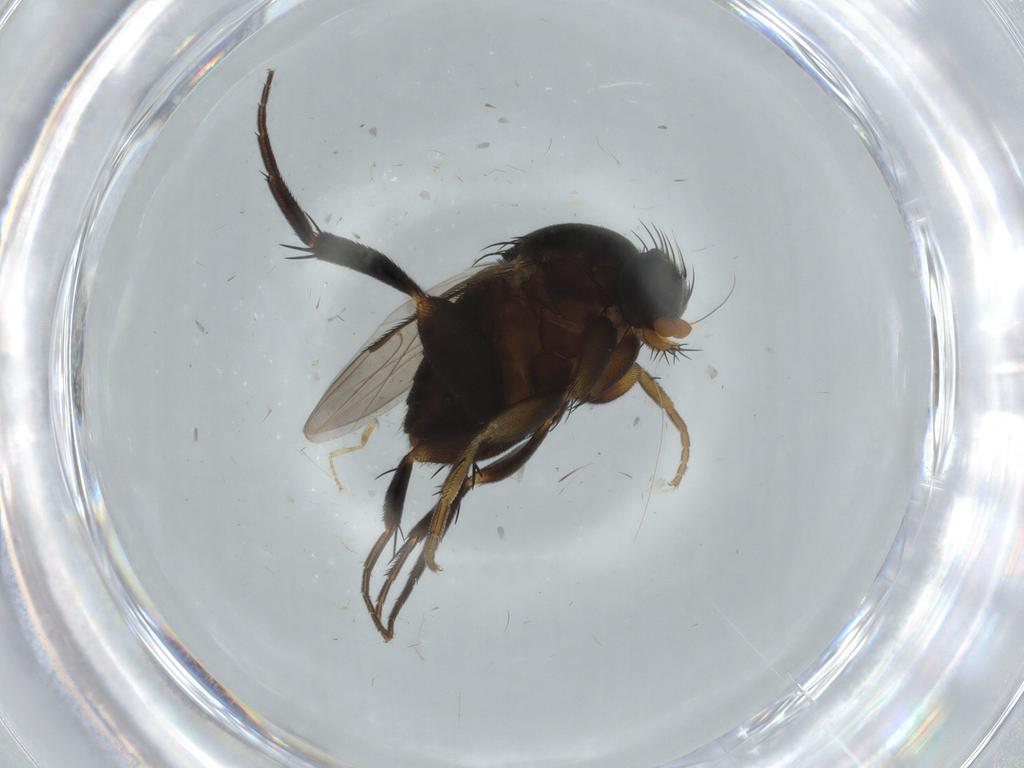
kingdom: Animalia
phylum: Arthropoda
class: Insecta
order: Diptera
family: Phoridae
